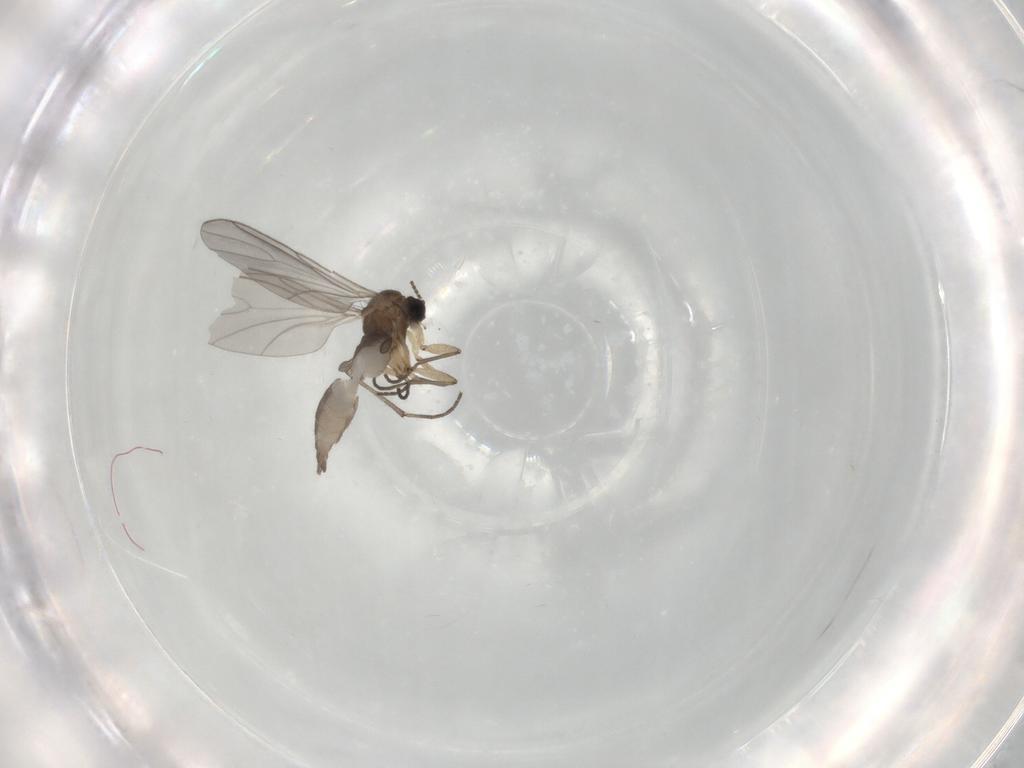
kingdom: Animalia
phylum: Arthropoda
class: Insecta
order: Diptera
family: Sciaridae
